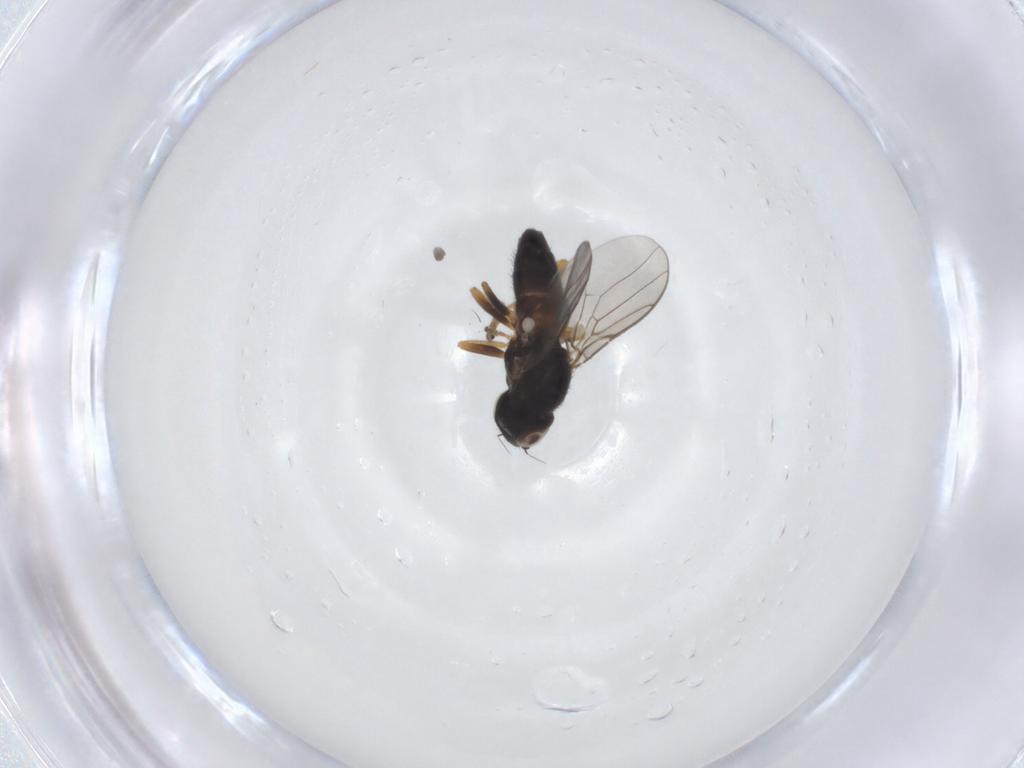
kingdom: Animalia
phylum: Arthropoda
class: Insecta
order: Diptera
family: Chloropidae
